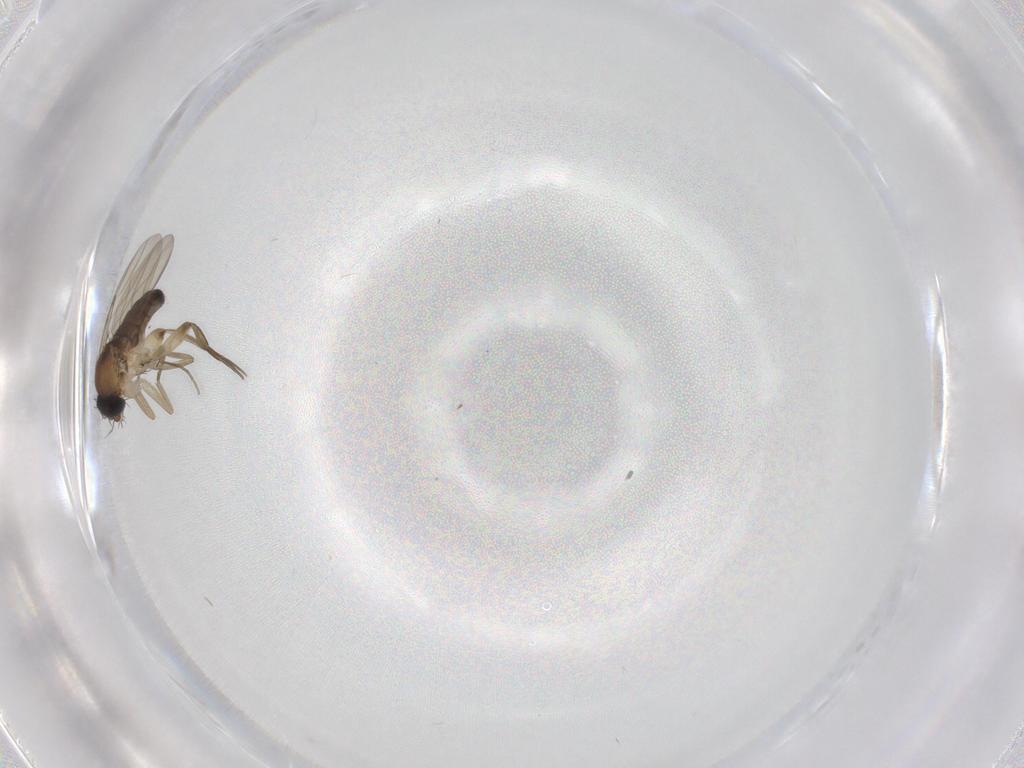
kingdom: Animalia
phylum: Arthropoda
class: Insecta
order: Diptera
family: Phoridae
